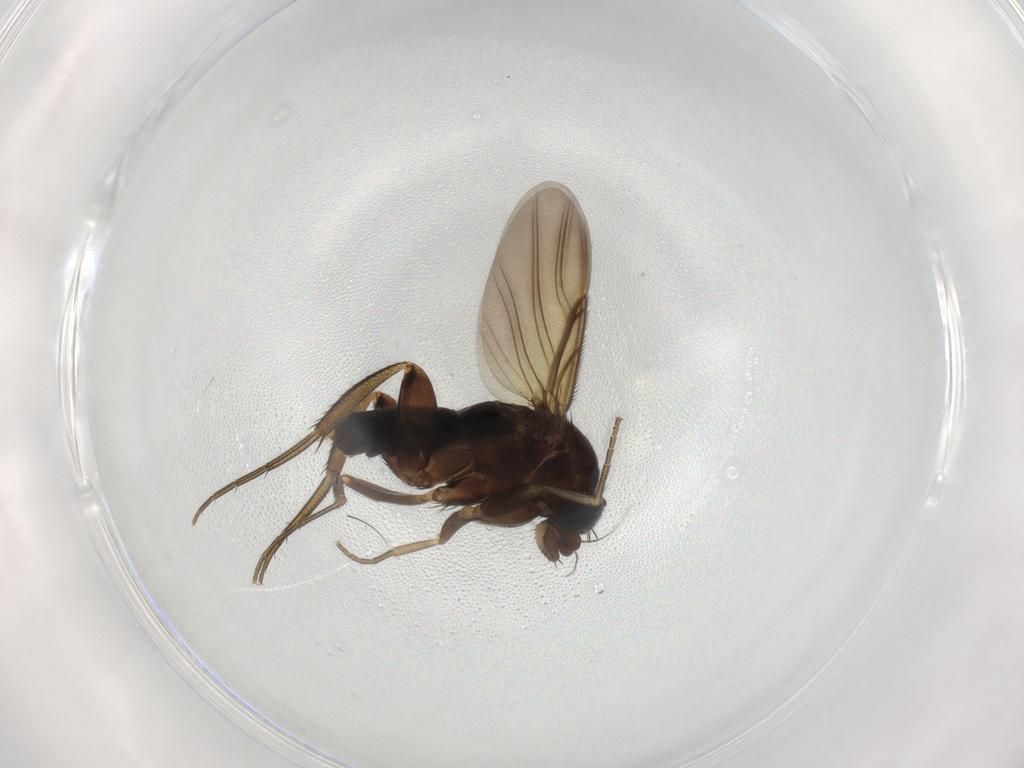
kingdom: Animalia
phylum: Arthropoda
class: Insecta
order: Diptera
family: Phoridae
